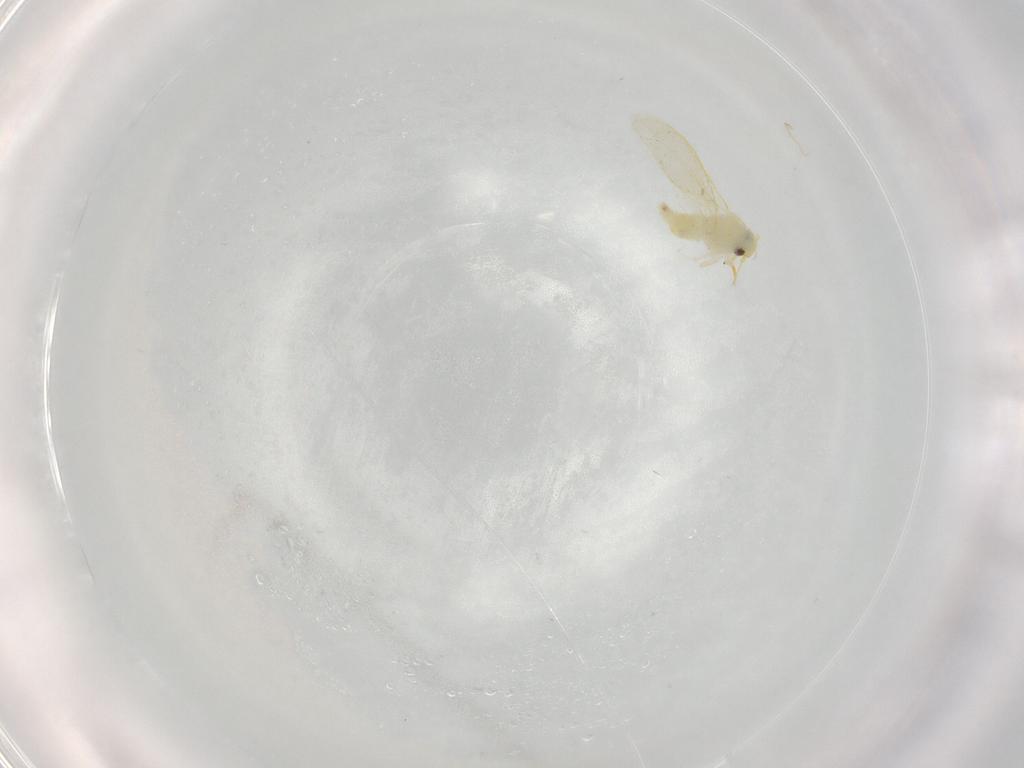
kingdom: Animalia
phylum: Arthropoda
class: Insecta
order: Hemiptera
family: Aleyrodidae
